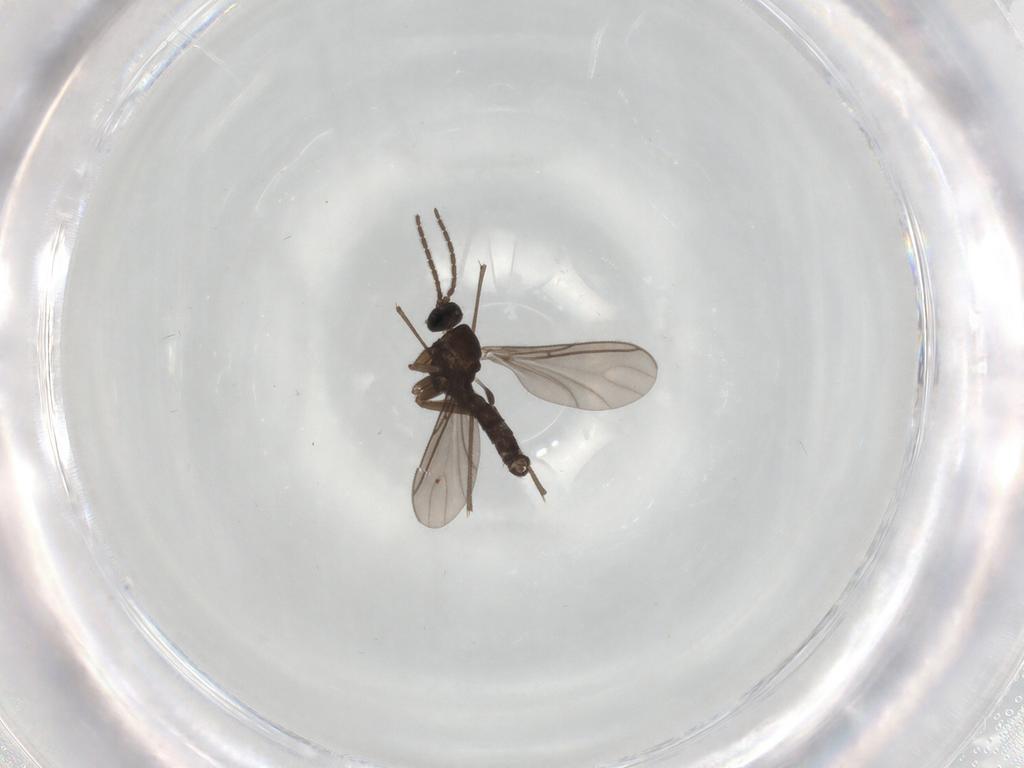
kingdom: Animalia
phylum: Arthropoda
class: Insecta
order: Diptera
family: Sciaridae
